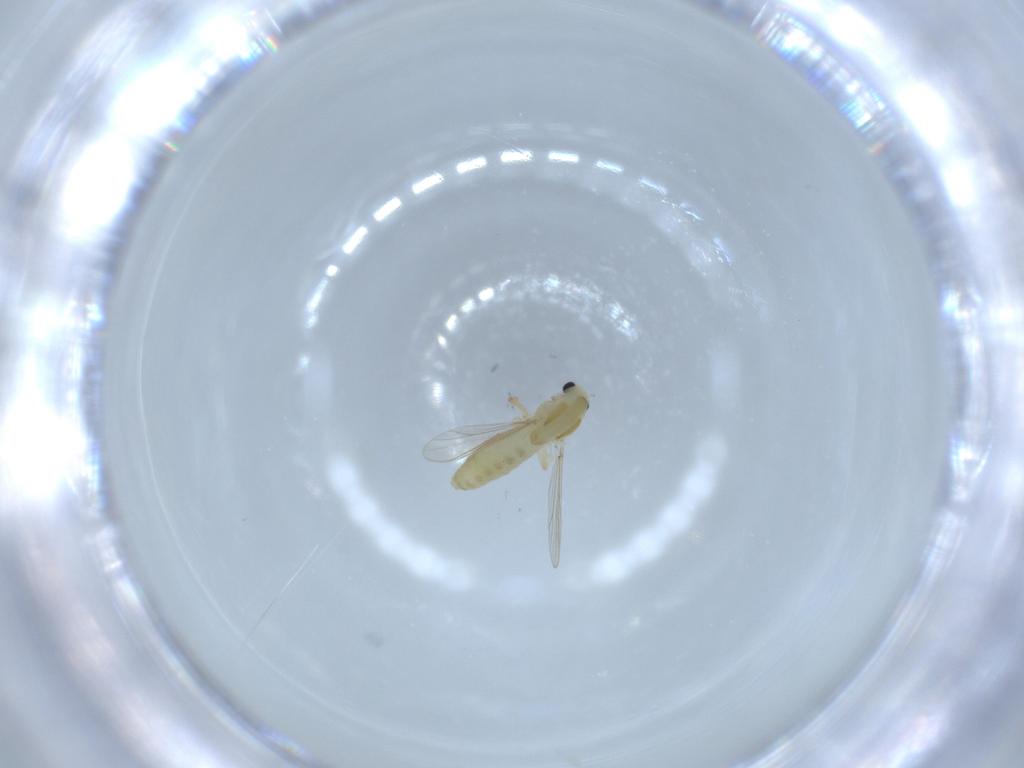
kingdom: Animalia
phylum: Arthropoda
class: Insecta
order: Diptera
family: Chironomidae
